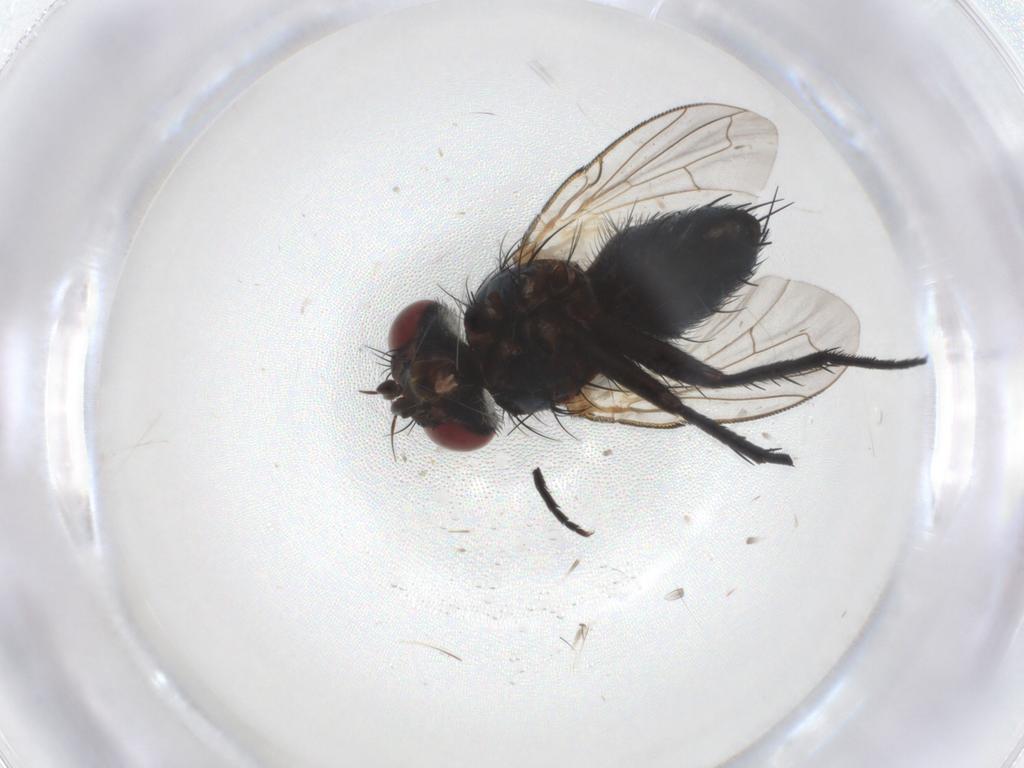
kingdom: Animalia
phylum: Arthropoda
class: Insecta
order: Diptera
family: Tachinidae
